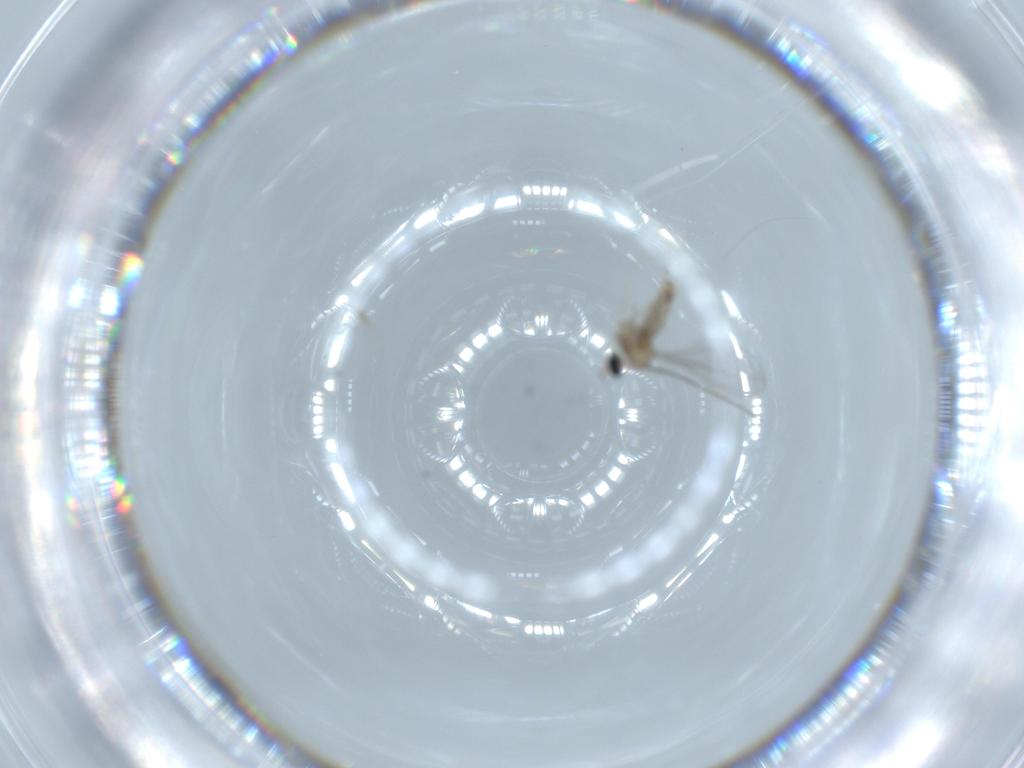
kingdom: Animalia
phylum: Arthropoda
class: Insecta
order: Diptera
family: Cecidomyiidae
